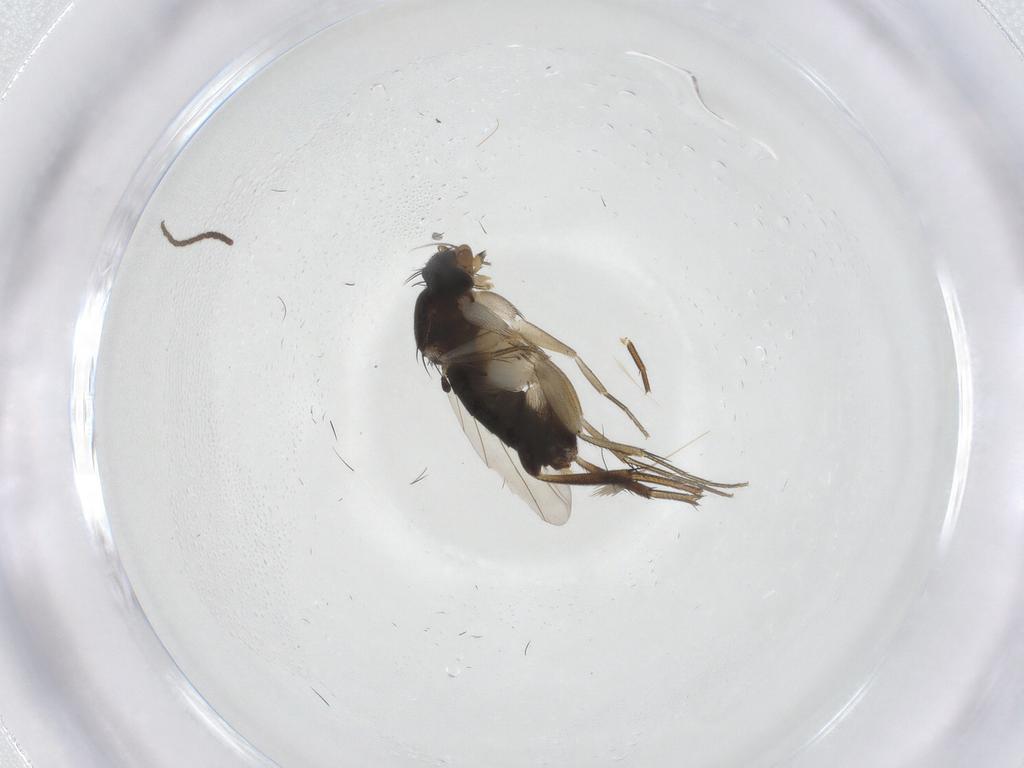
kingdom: Animalia
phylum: Arthropoda
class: Insecta
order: Diptera
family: Phoridae
